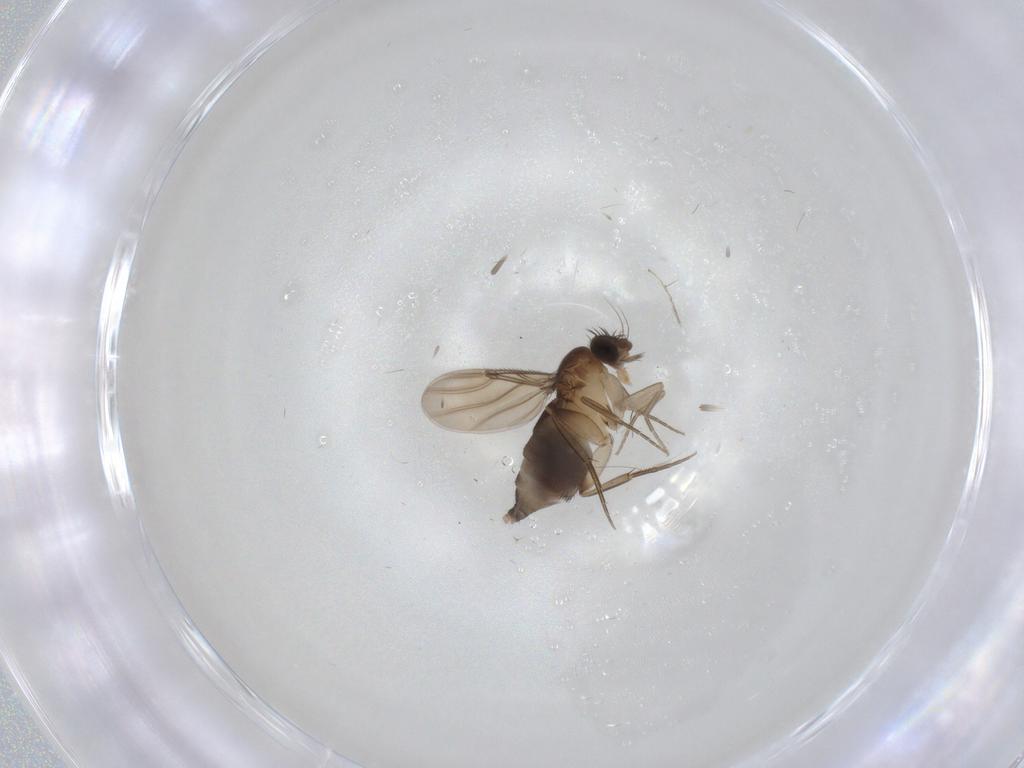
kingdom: Animalia
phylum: Arthropoda
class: Insecta
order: Diptera
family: Phoridae
